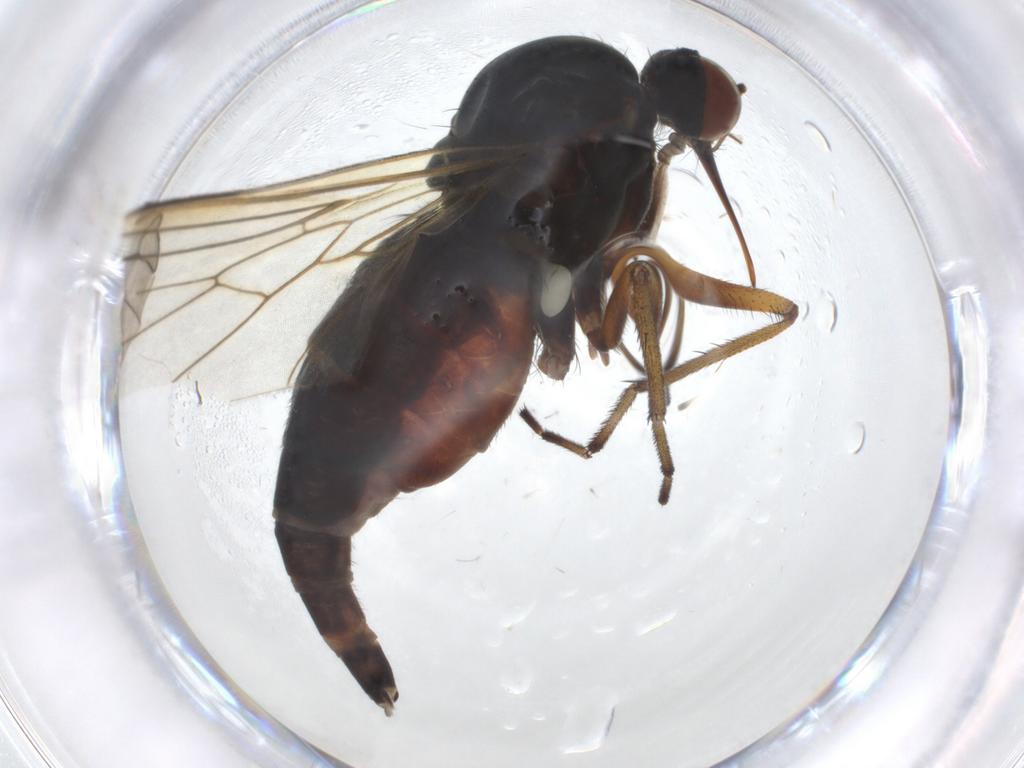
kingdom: Animalia
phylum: Arthropoda
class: Insecta
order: Diptera
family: Empididae
